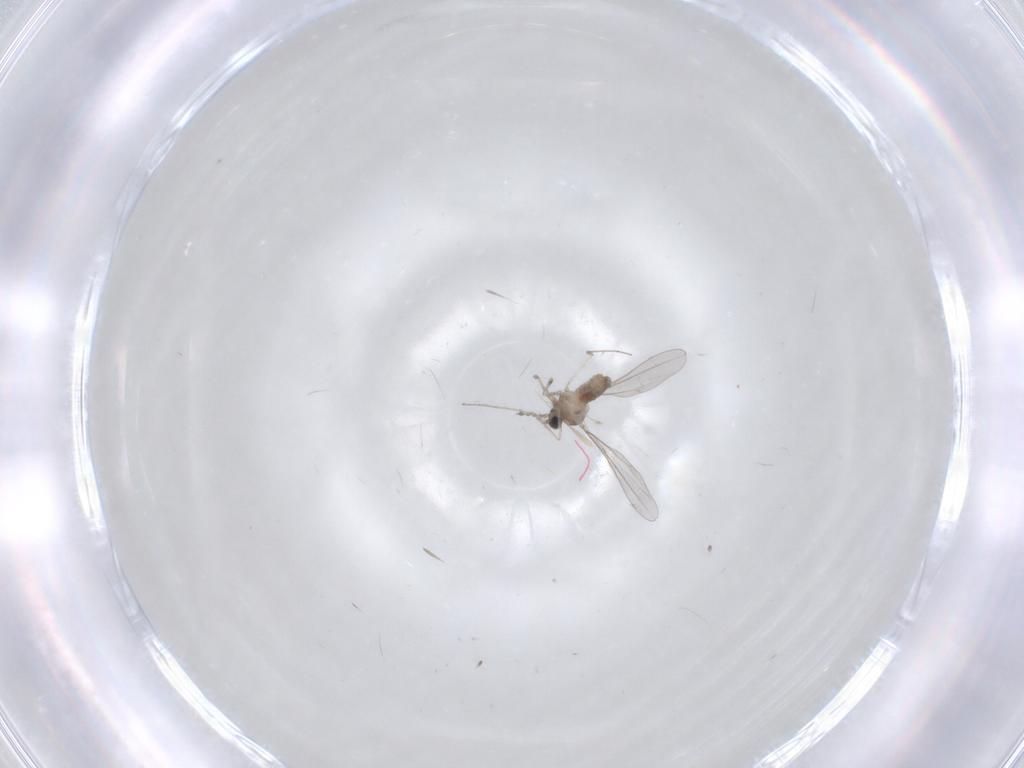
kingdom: Animalia
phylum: Arthropoda
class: Insecta
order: Diptera
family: Cecidomyiidae
